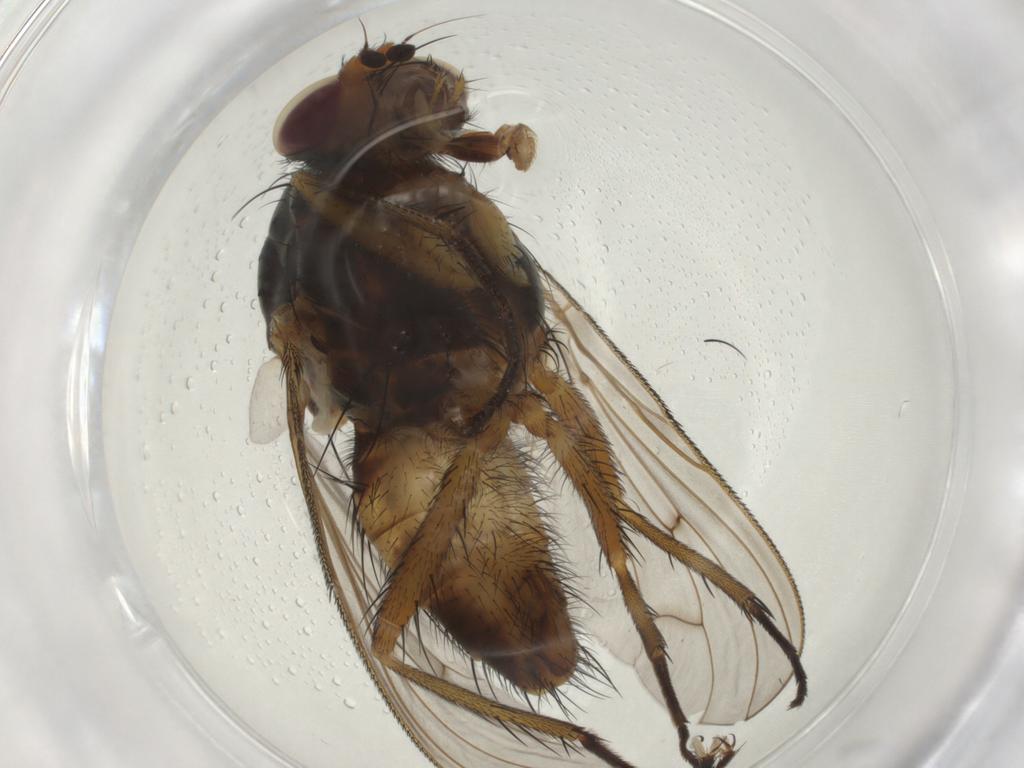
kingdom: Animalia
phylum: Arthropoda
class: Insecta
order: Diptera
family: Anthomyiidae
